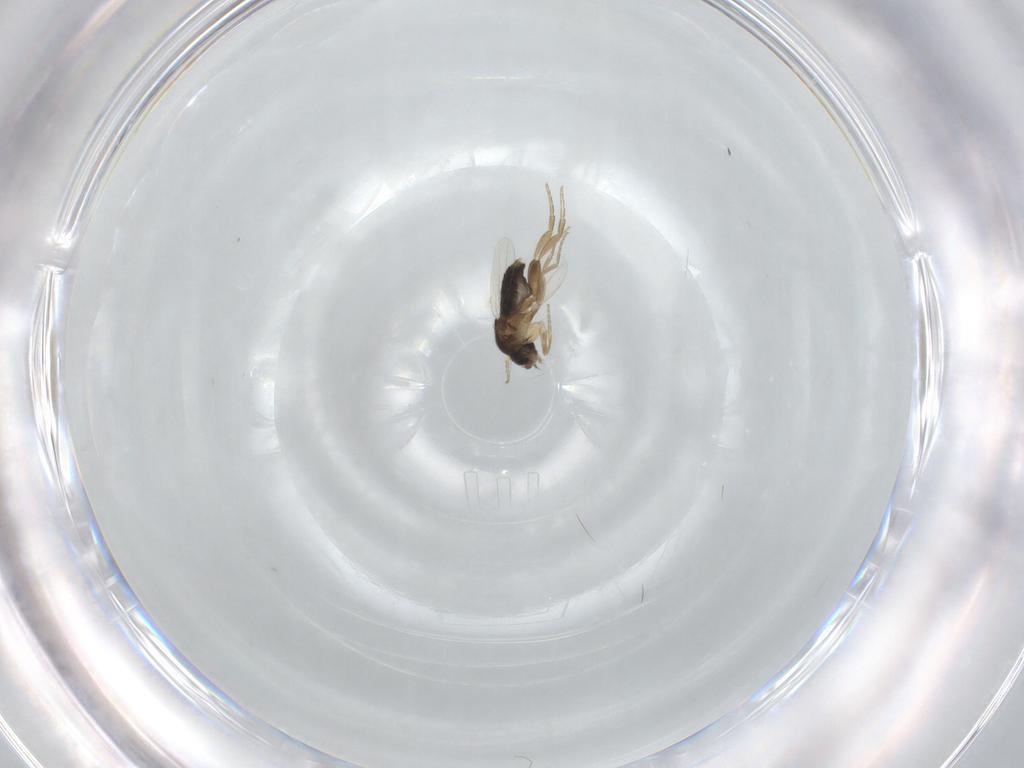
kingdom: Animalia
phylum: Arthropoda
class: Insecta
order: Diptera
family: Phoridae
